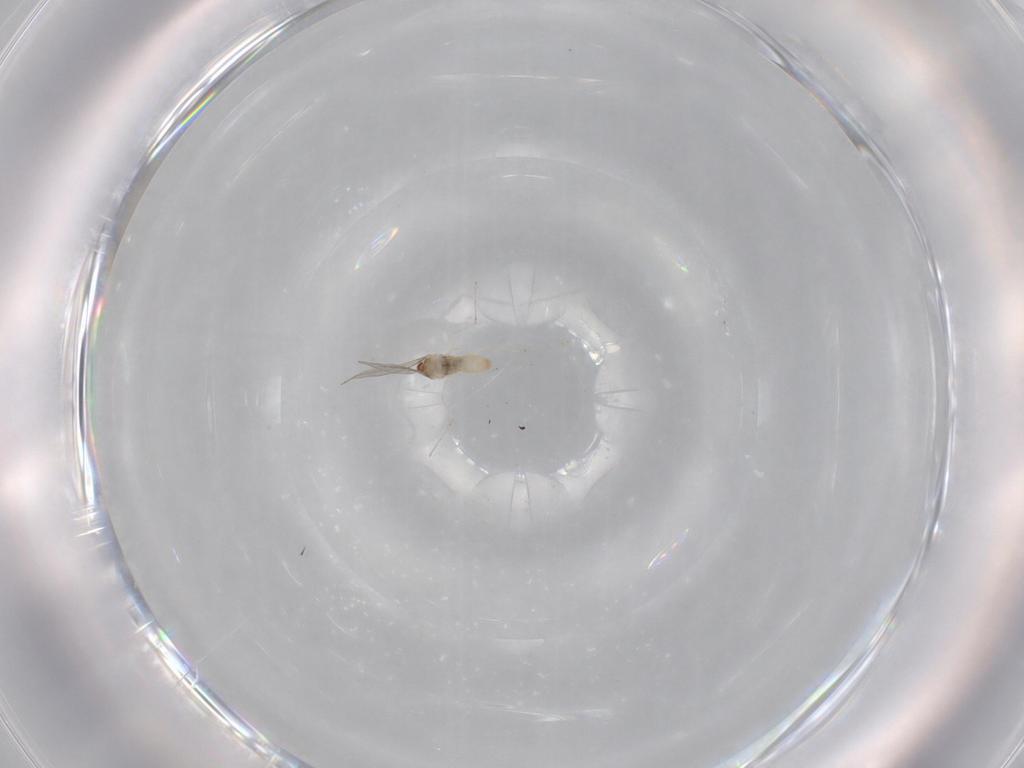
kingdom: Animalia
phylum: Arthropoda
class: Insecta
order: Diptera
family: Cecidomyiidae
